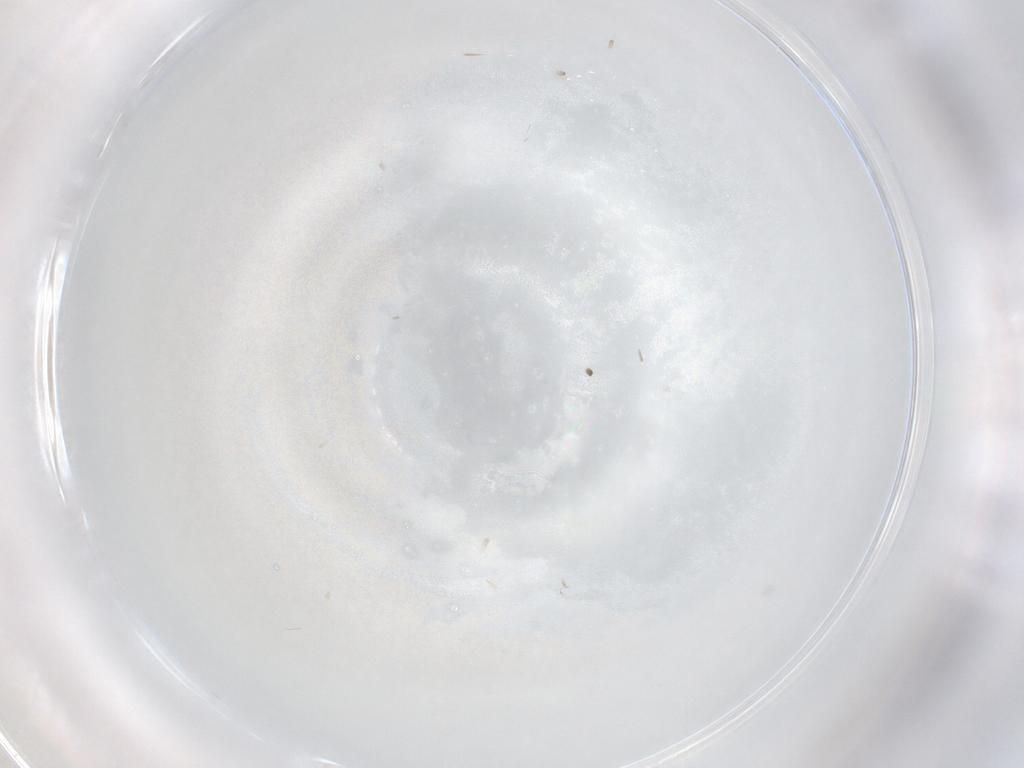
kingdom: Animalia
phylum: Arthropoda
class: Insecta
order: Hymenoptera
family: Trichogrammatidae
